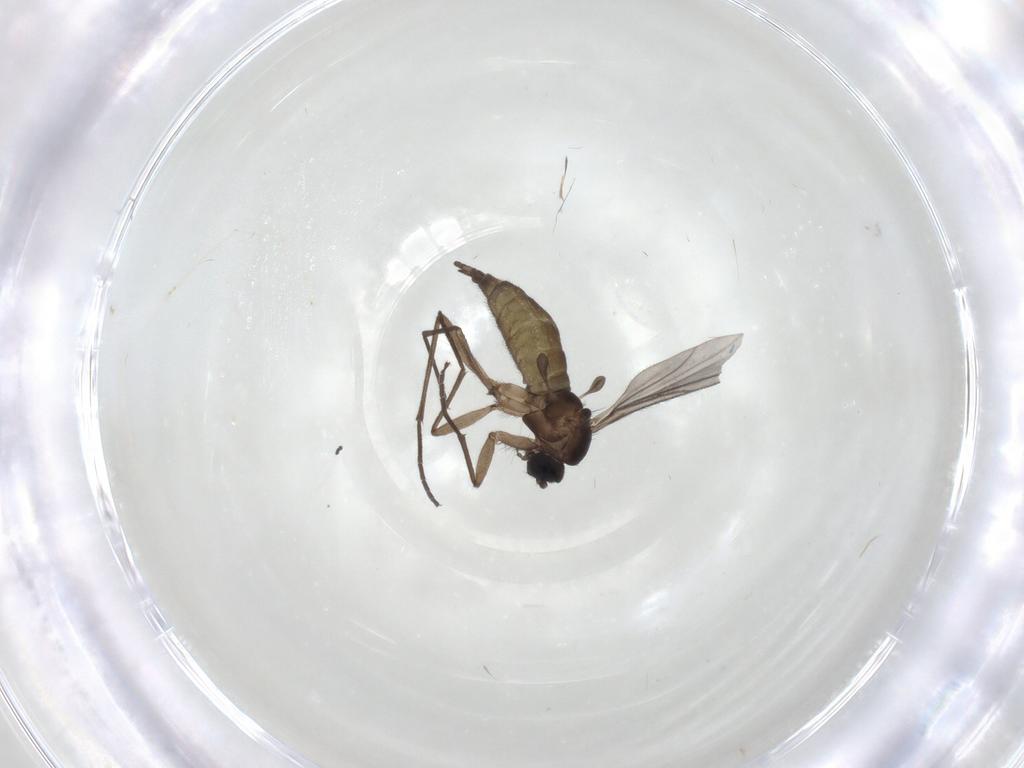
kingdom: Animalia
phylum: Arthropoda
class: Insecta
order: Diptera
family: Sciaridae
